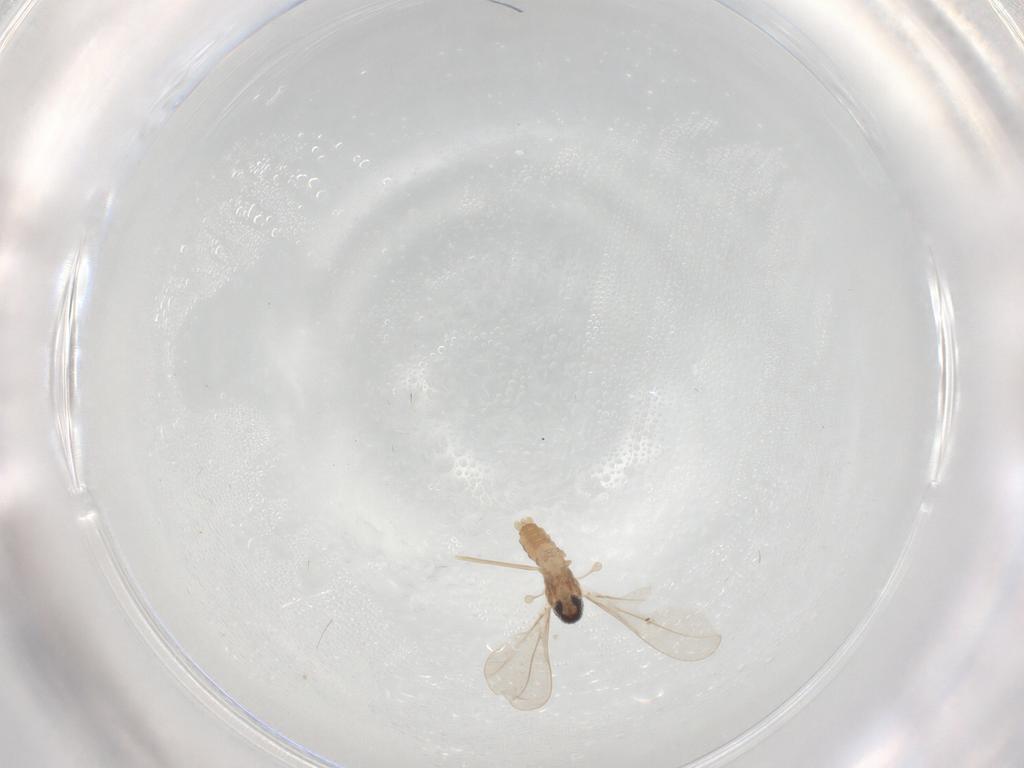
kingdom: Animalia
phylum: Arthropoda
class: Insecta
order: Diptera
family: Cecidomyiidae
